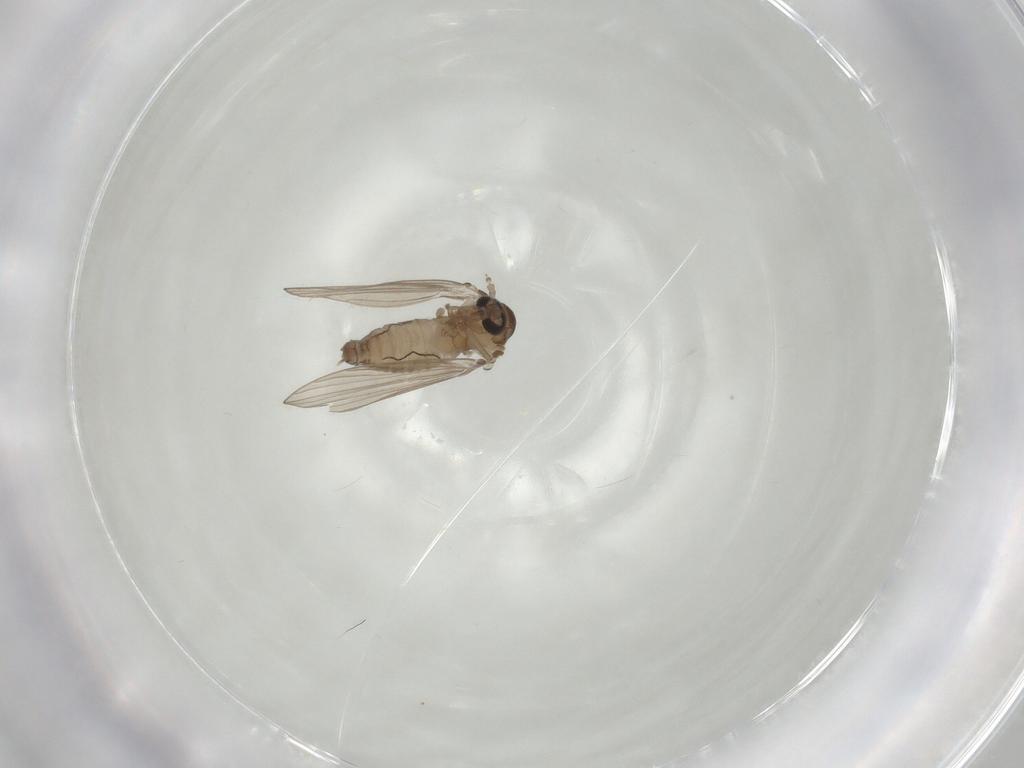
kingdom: Animalia
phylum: Arthropoda
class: Insecta
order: Diptera
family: Psychodidae
